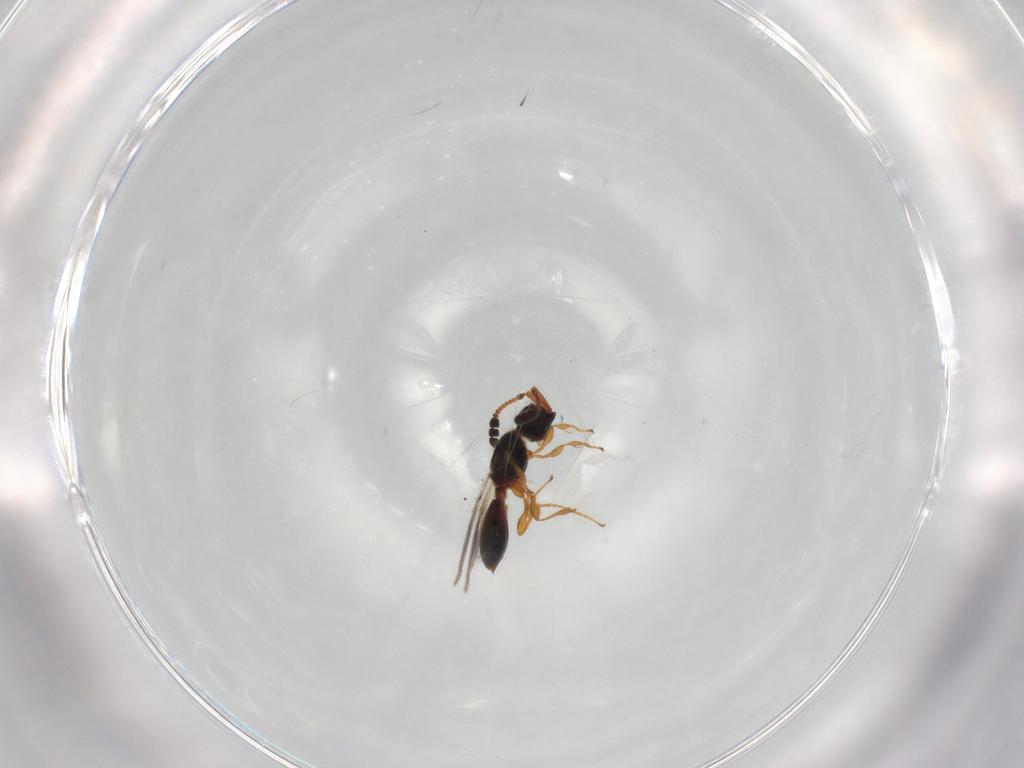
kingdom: Animalia
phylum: Arthropoda
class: Insecta
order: Hymenoptera
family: Diapriidae
